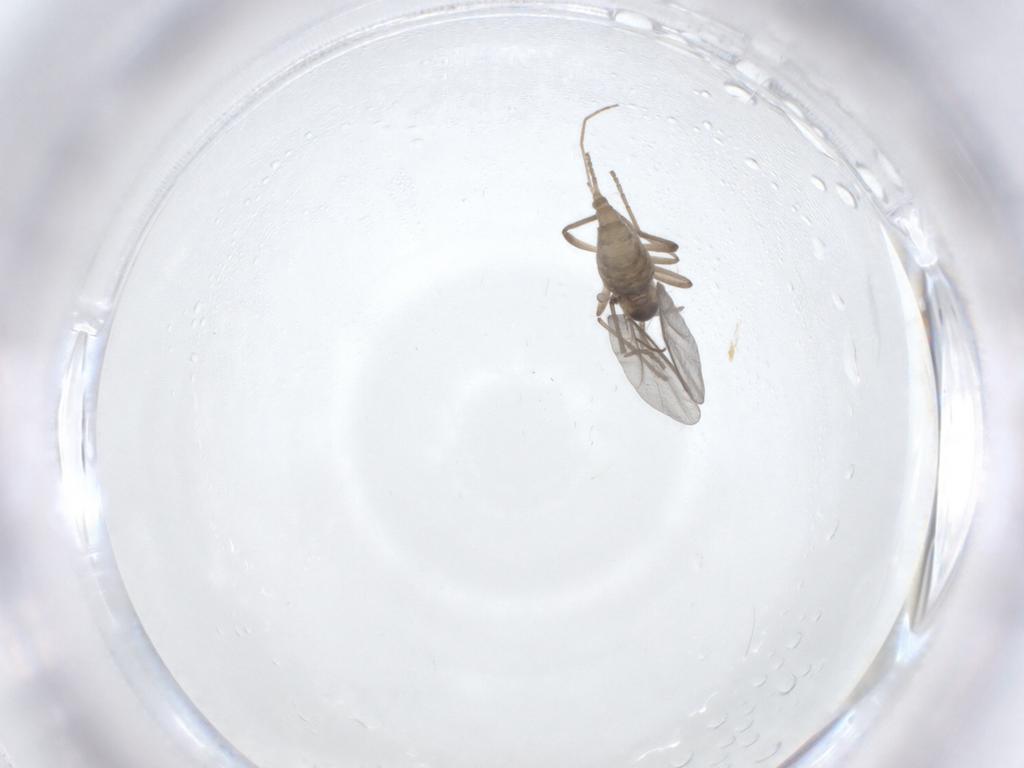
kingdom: Animalia
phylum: Arthropoda
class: Insecta
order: Diptera
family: Cecidomyiidae
